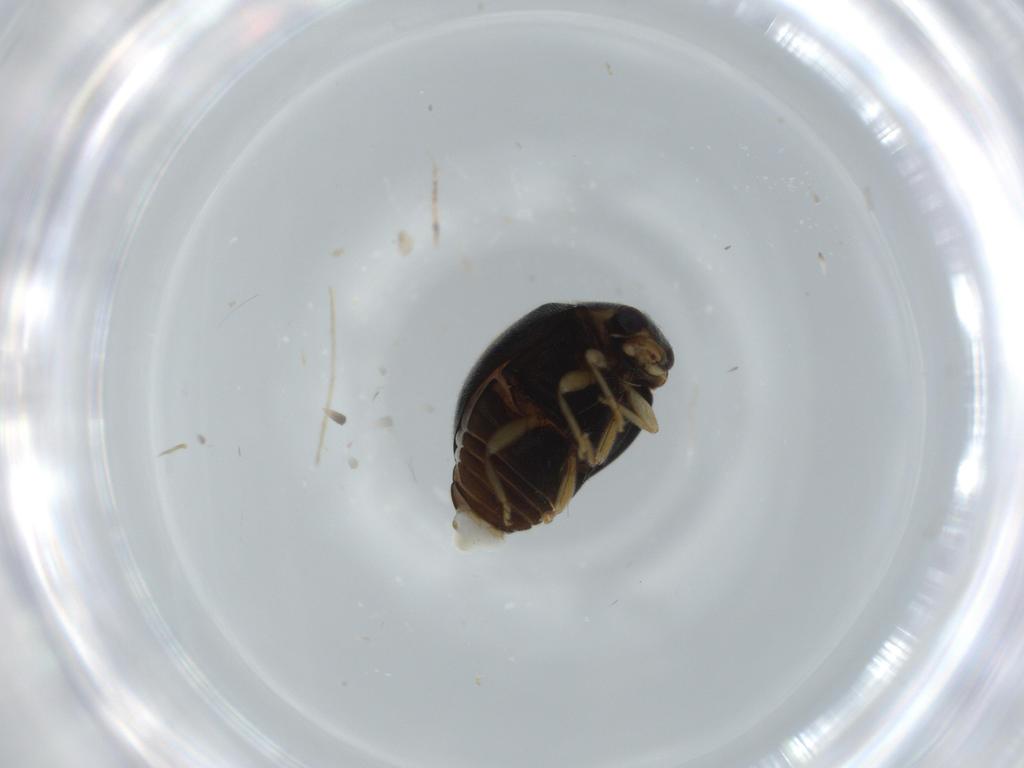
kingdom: Animalia
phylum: Arthropoda
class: Insecta
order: Coleoptera
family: Coccinellidae
